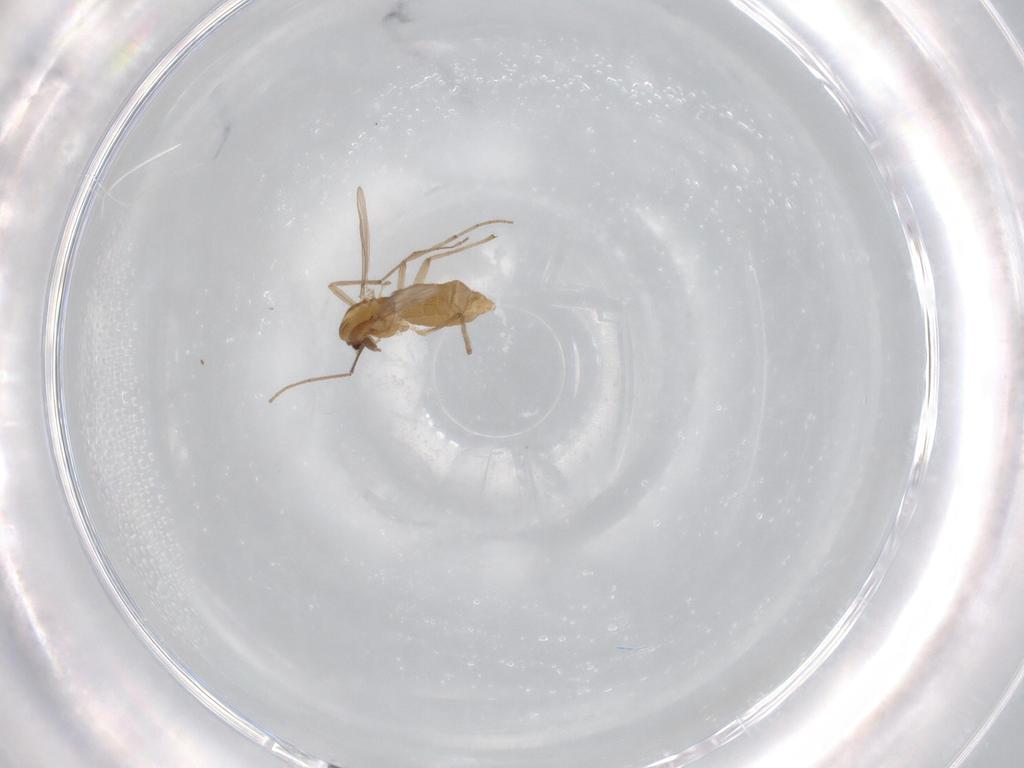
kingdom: Animalia
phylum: Arthropoda
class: Insecta
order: Diptera
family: Chironomidae
